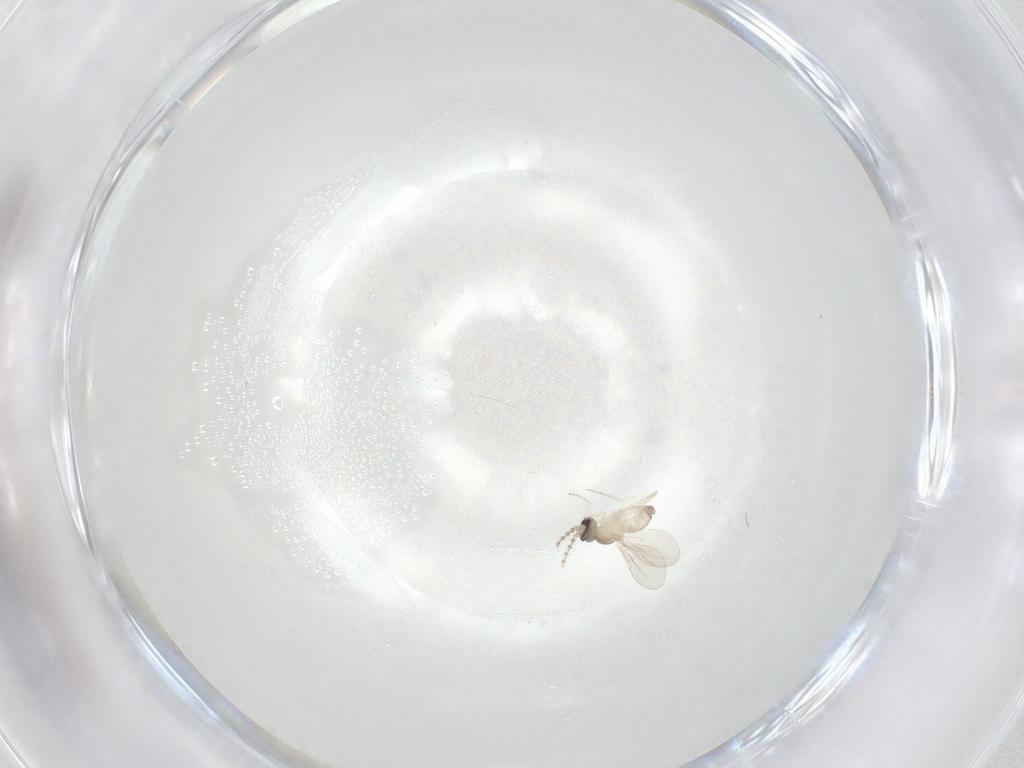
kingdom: Animalia
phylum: Arthropoda
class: Insecta
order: Diptera
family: Cecidomyiidae
